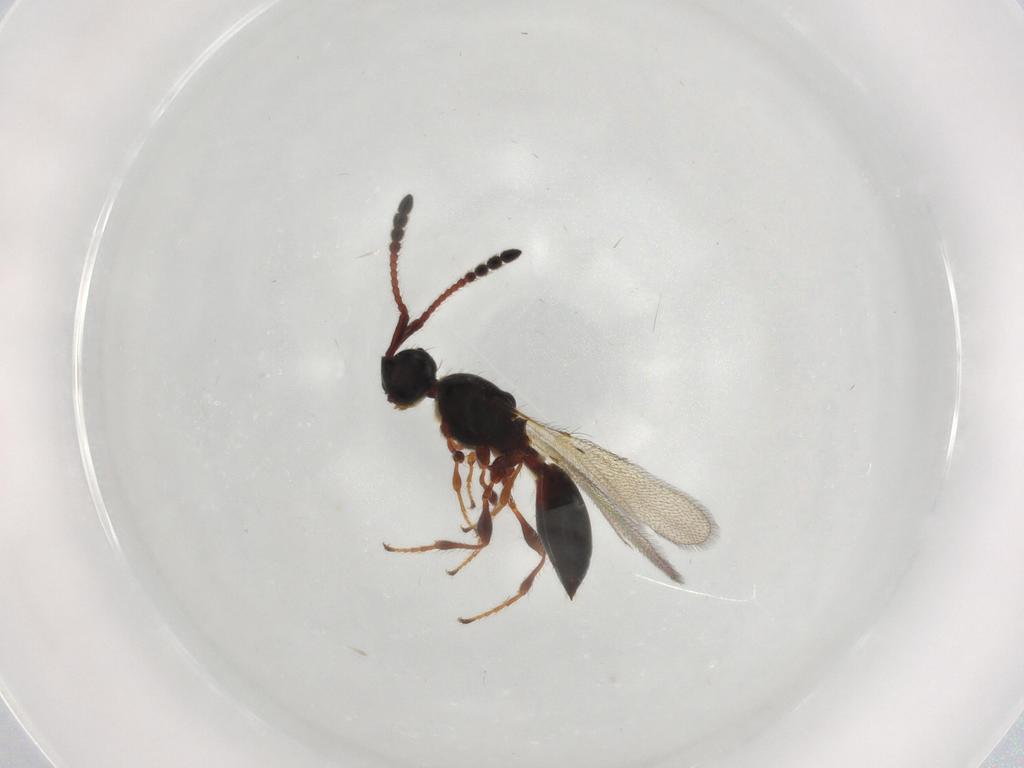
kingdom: Animalia
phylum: Arthropoda
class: Insecta
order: Hymenoptera
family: Diapriidae
